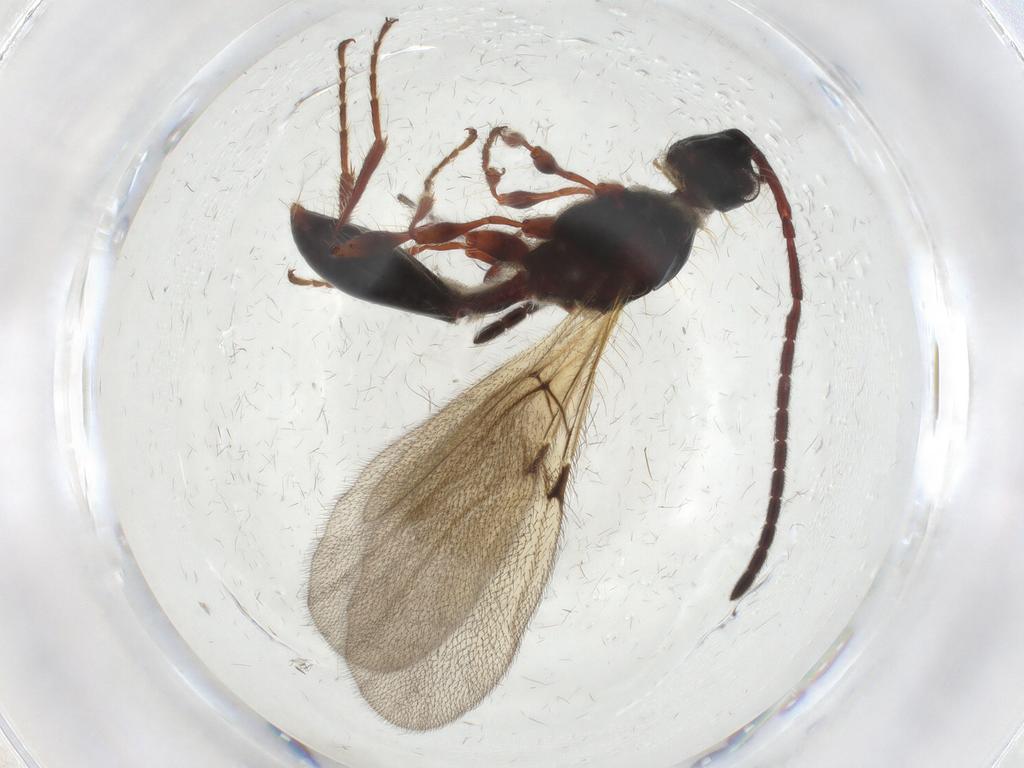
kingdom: Animalia
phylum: Arthropoda
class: Insecta
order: Hymenoptera
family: Diapriidae
